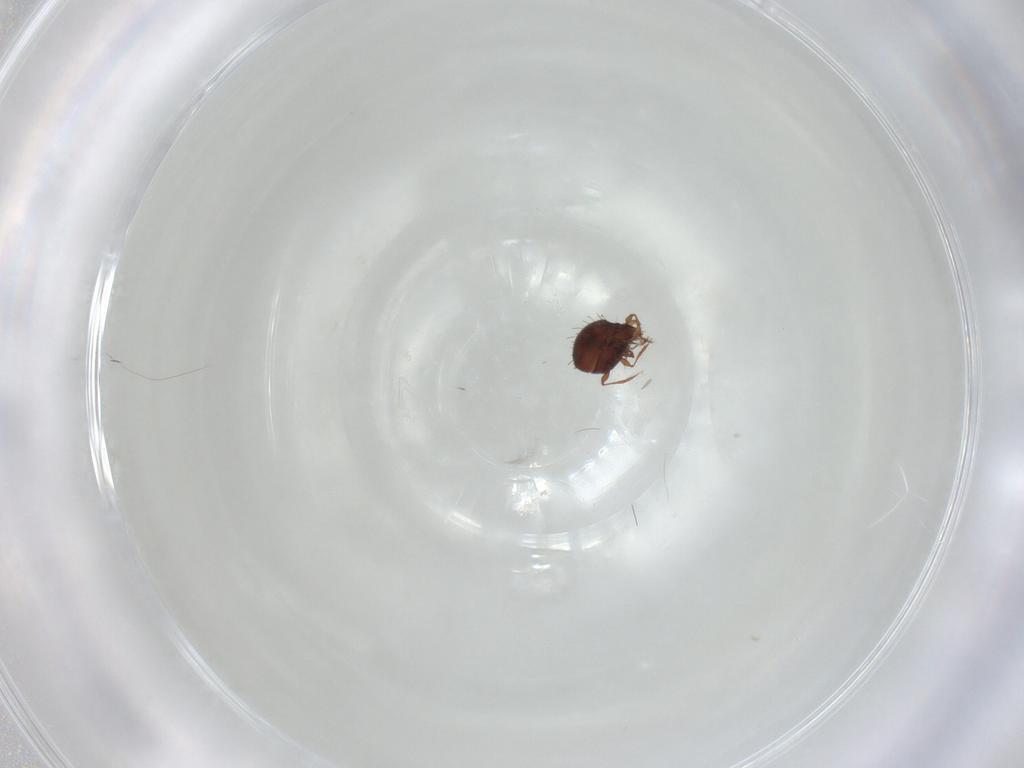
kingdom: Animalia
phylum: Arthropoda
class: Arachnida
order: Sarcoptiformes
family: Caloppiidae
